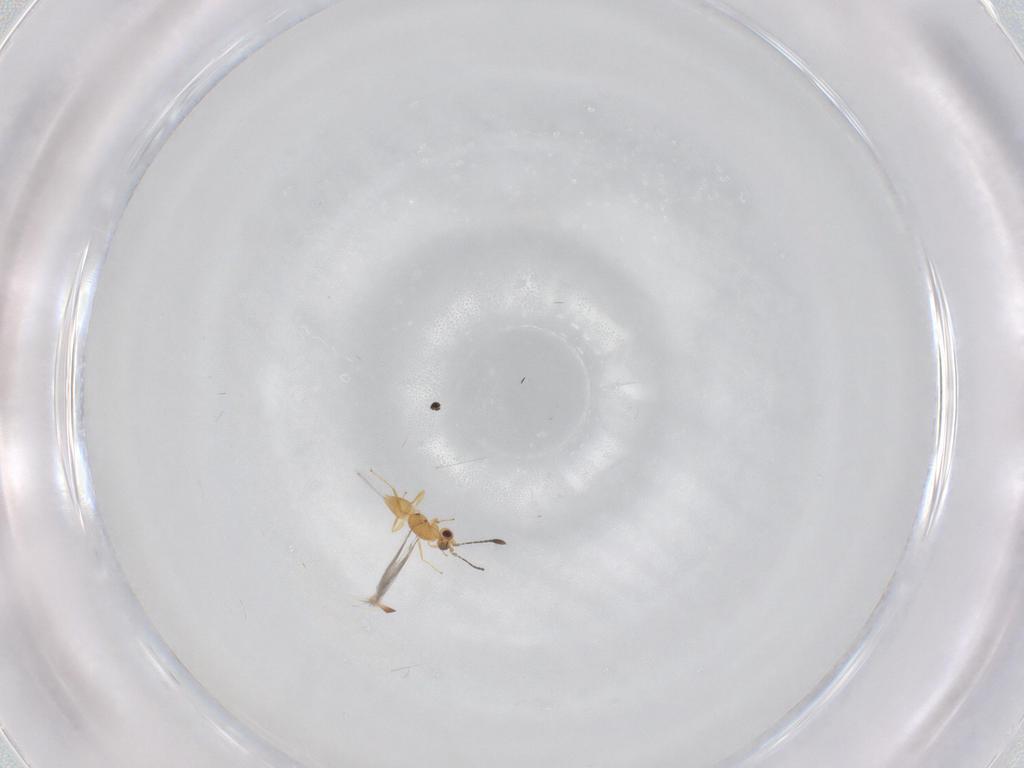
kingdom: Animalia
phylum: Arthropoda
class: Insecta
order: Hymenoptera
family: Mymaridae
